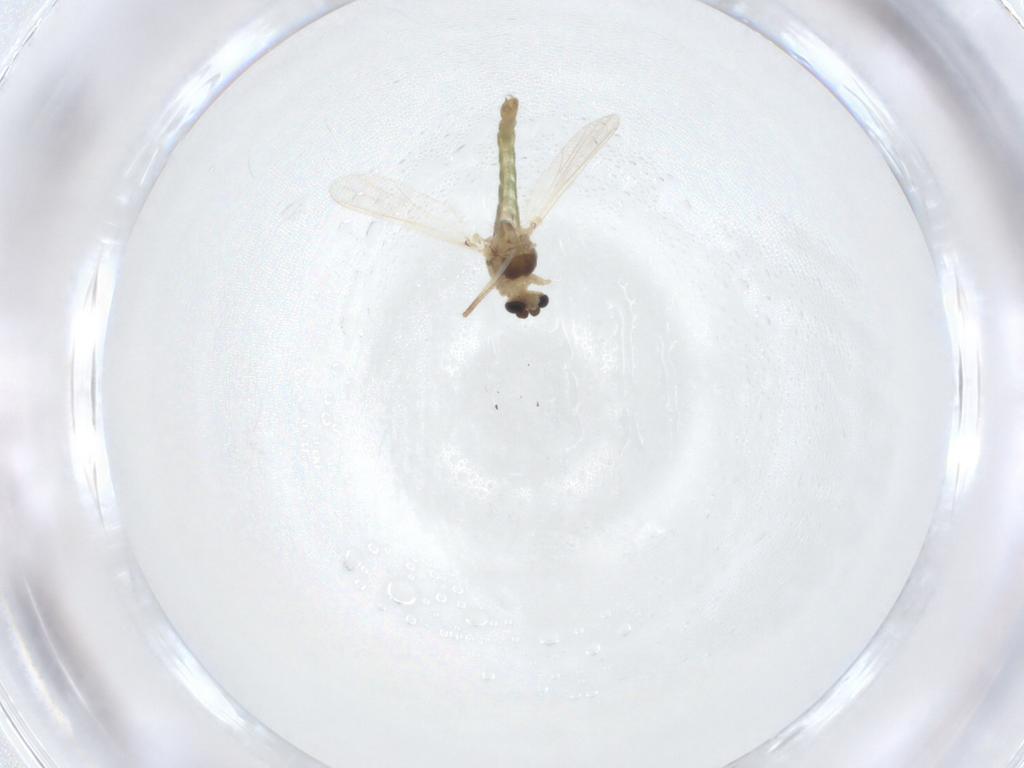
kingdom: Animalia
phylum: Arthropoda
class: Insecta
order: Diptera
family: Chironomidae
